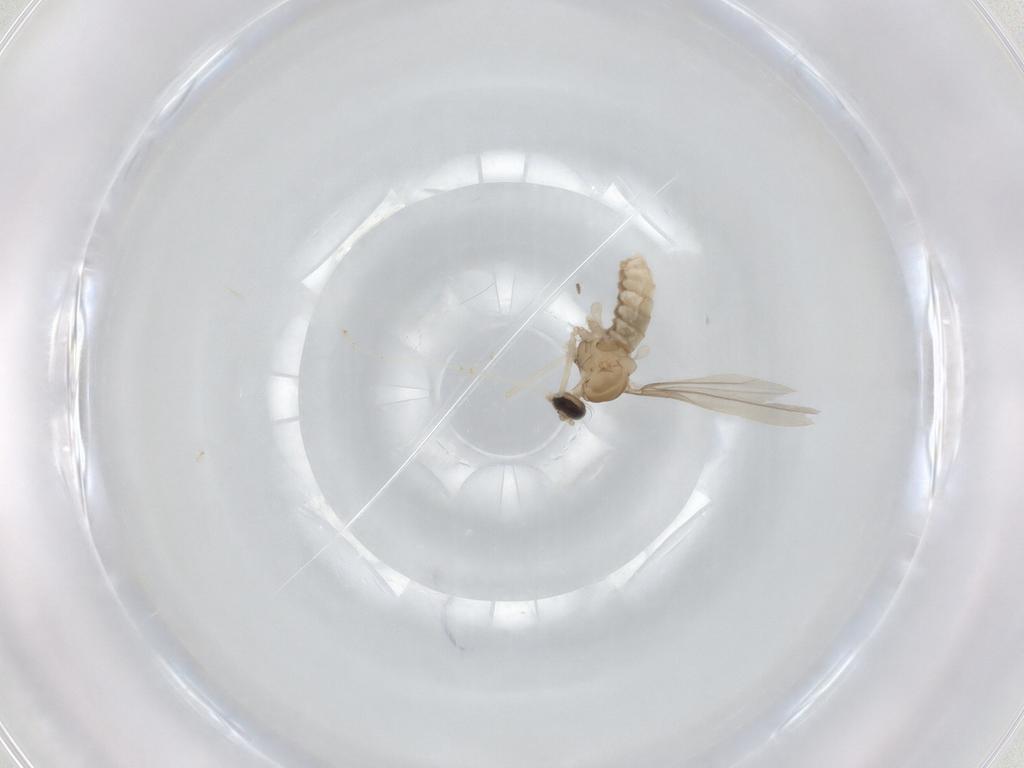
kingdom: Animalia
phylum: Arthropoda
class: Insecta
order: Diptera
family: Cecidomyiidae
